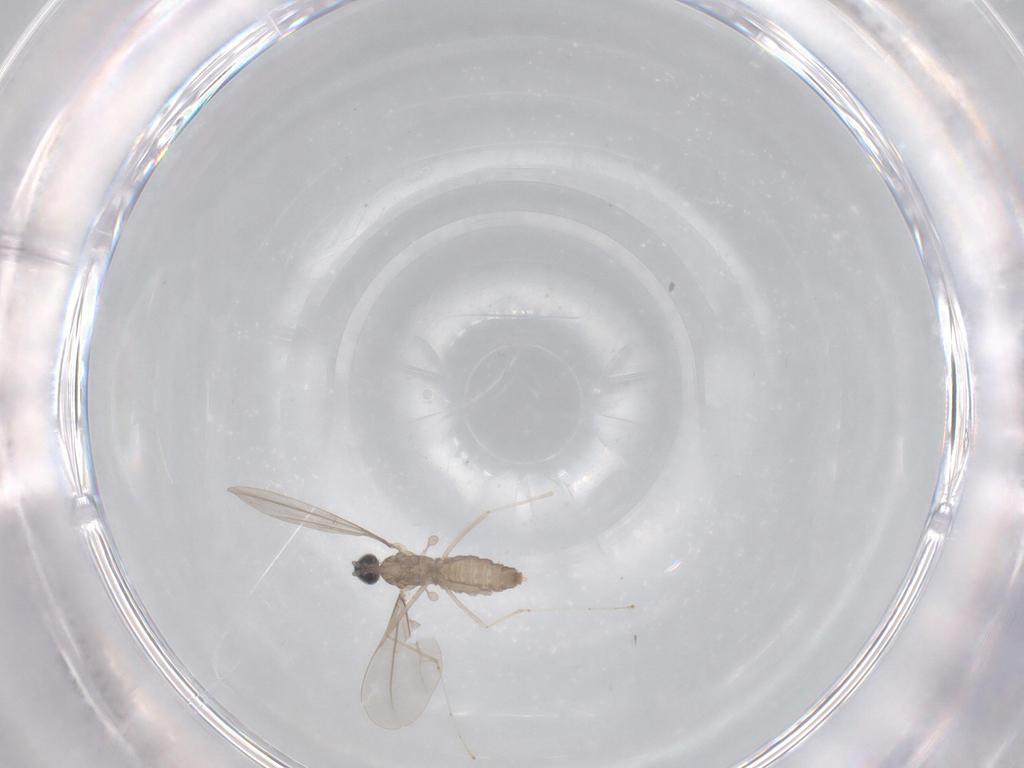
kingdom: Animalia
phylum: Arthropoda
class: Insecta
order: Diptera
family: Cecidomyiidae
